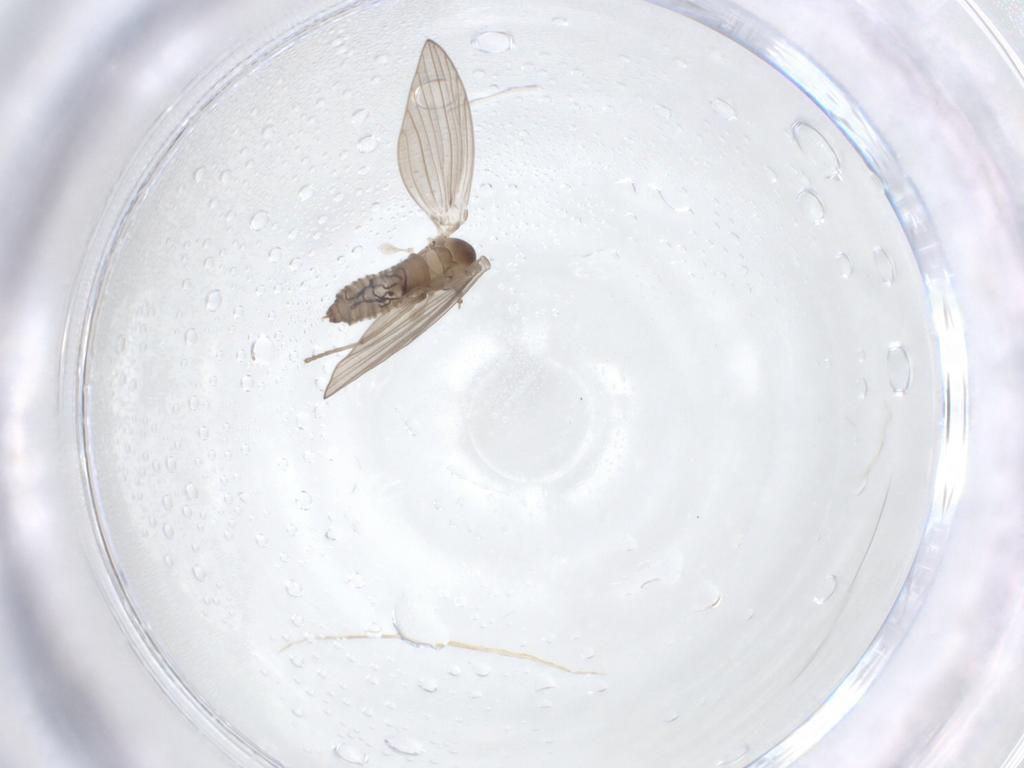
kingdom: Animalia
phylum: Arthropoda
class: Insecta
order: Diptera
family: Psychodidae
